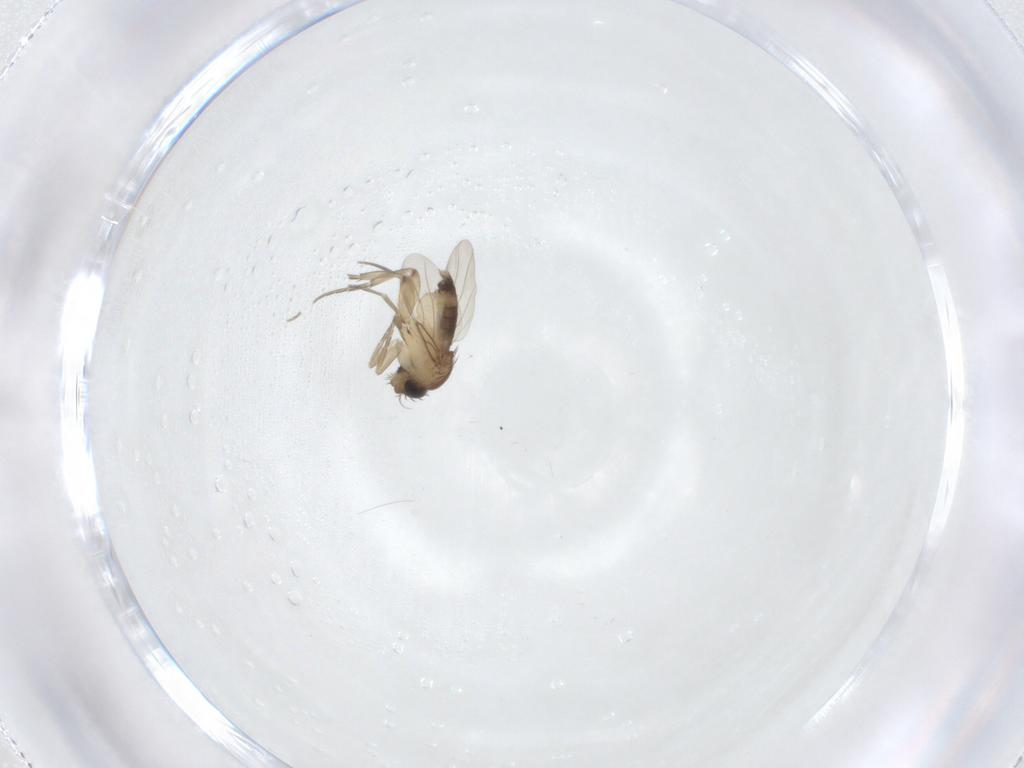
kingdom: Animalia
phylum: Arthropoda
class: Insecta
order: Diptera
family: Phoridae
